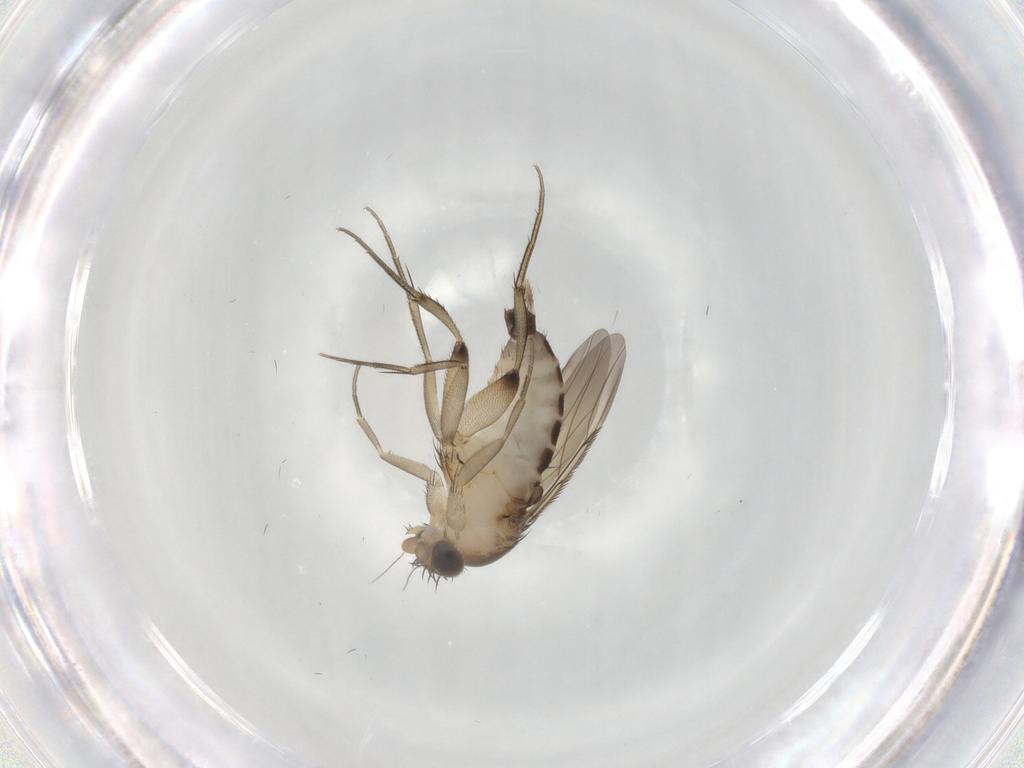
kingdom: Animalia
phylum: Arthropoda
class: Insecta
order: Diptera
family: Phoridae
